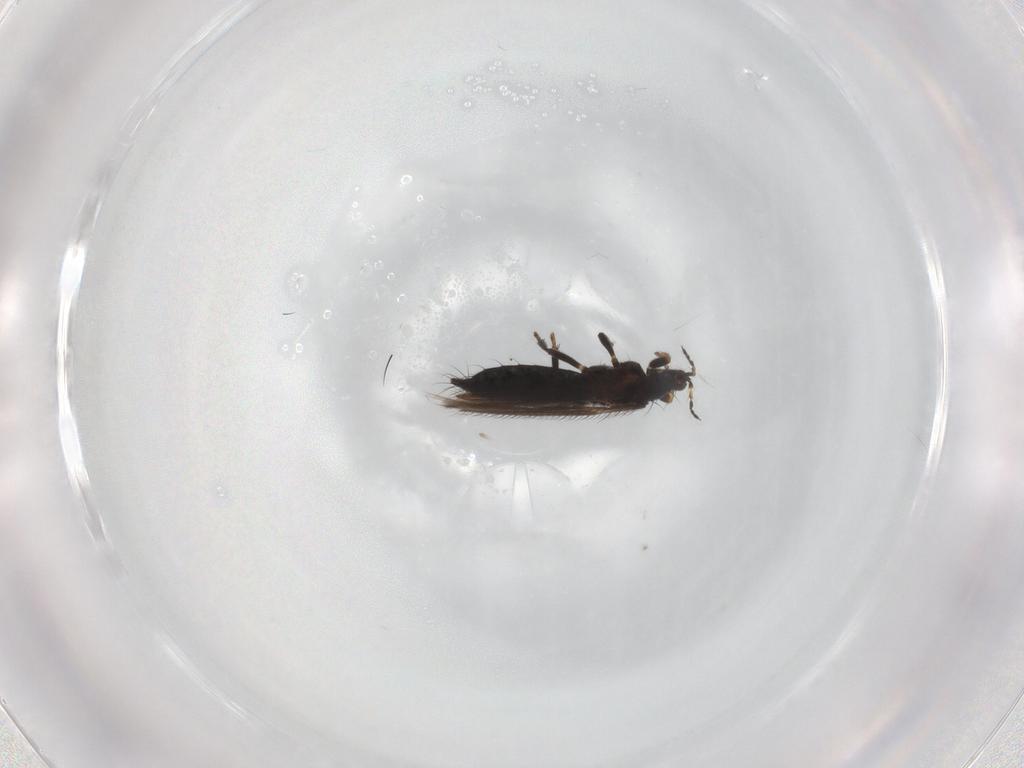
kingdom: Animalia
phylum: Arthropoda
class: Insecta
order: Thysanoptera
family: Thripidae
